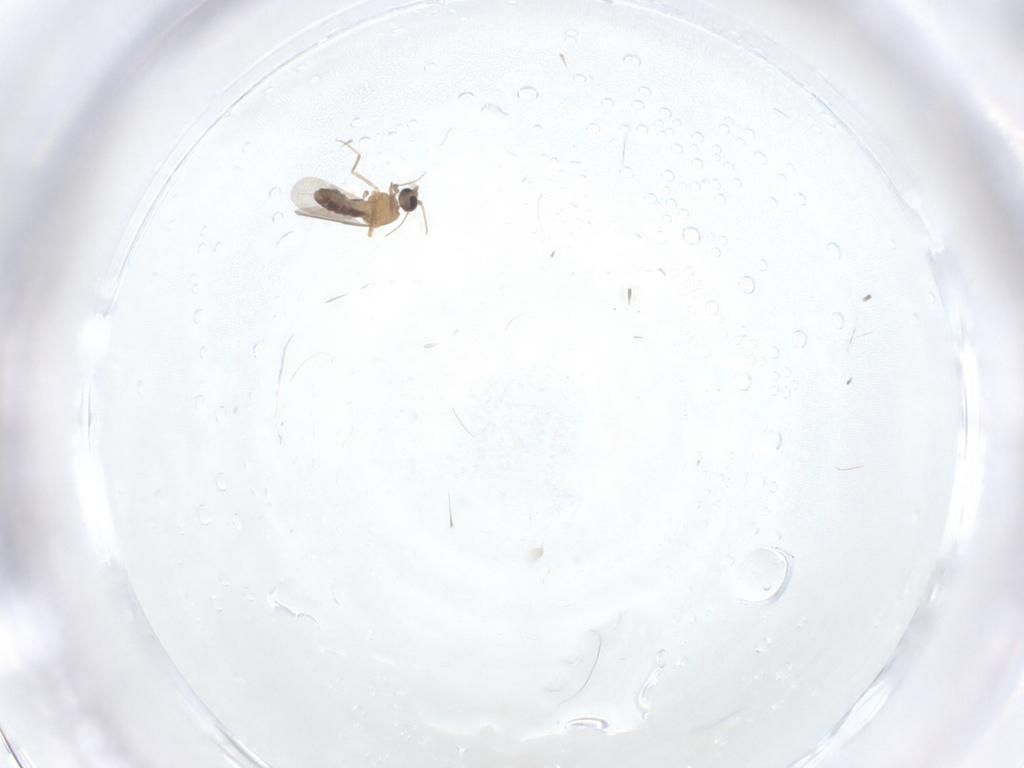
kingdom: Animalia
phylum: Arthropoda
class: Insecta
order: Diptera
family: Ceratopogonidae
